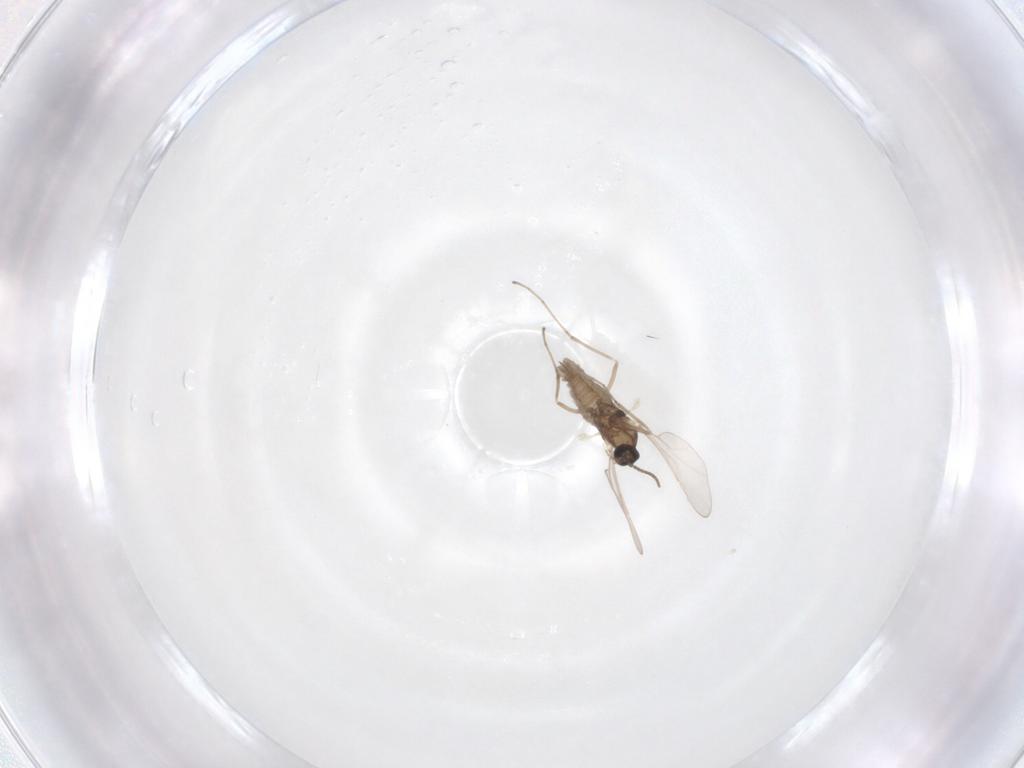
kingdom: Animalia
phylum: Arthropoda
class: Insecta
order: Diptera
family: Cecidomyiidae
